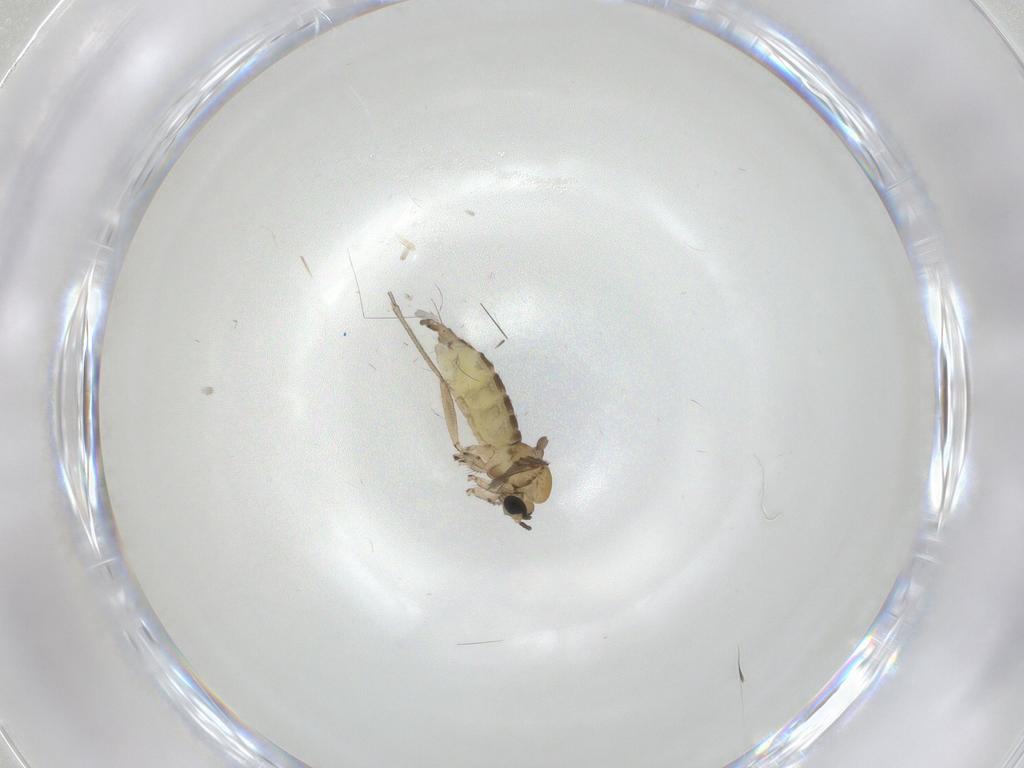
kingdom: Animalia
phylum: Arthropoda
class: Insecta
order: Diptera
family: Sciaridae
